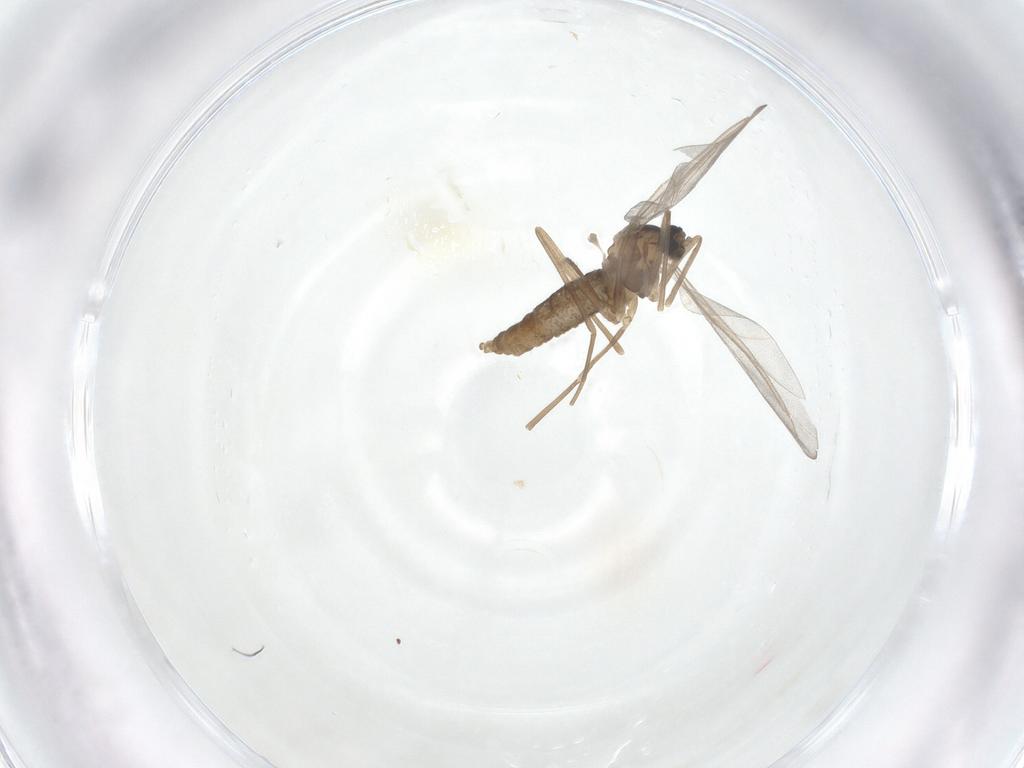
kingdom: Animalia
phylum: Arthropoda
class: Insecta
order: Diptera
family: Cecidomyiidae
